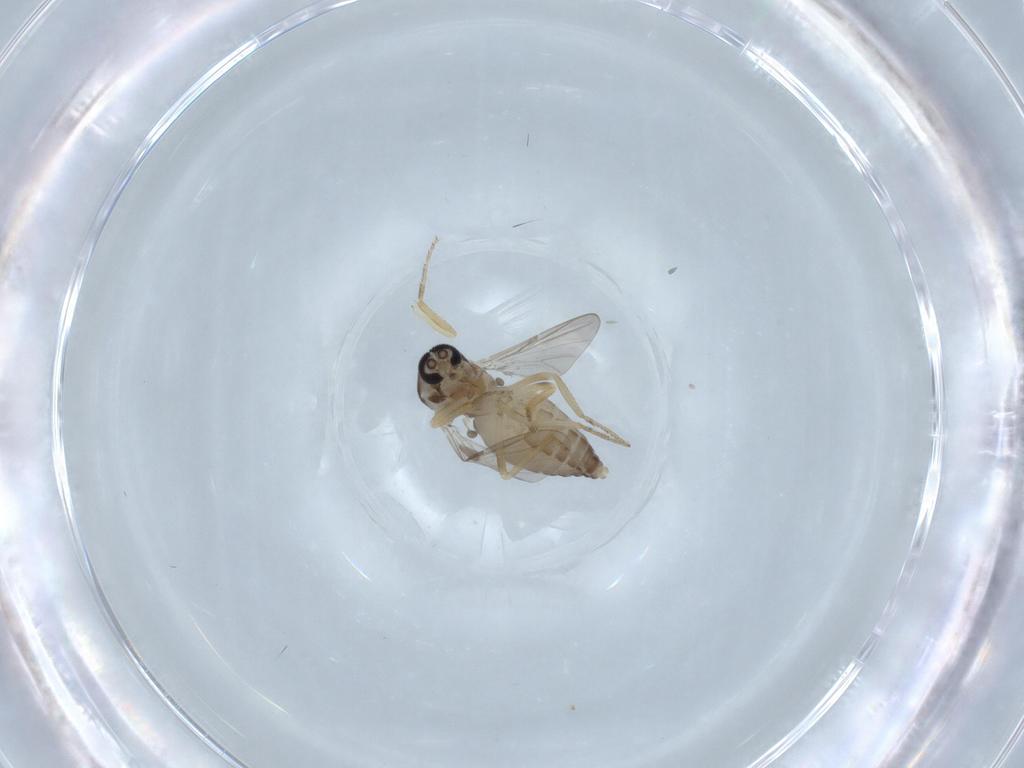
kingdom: Animalia
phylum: Arthropoda
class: Insecta
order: Diptera
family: Ceratopogonidae
